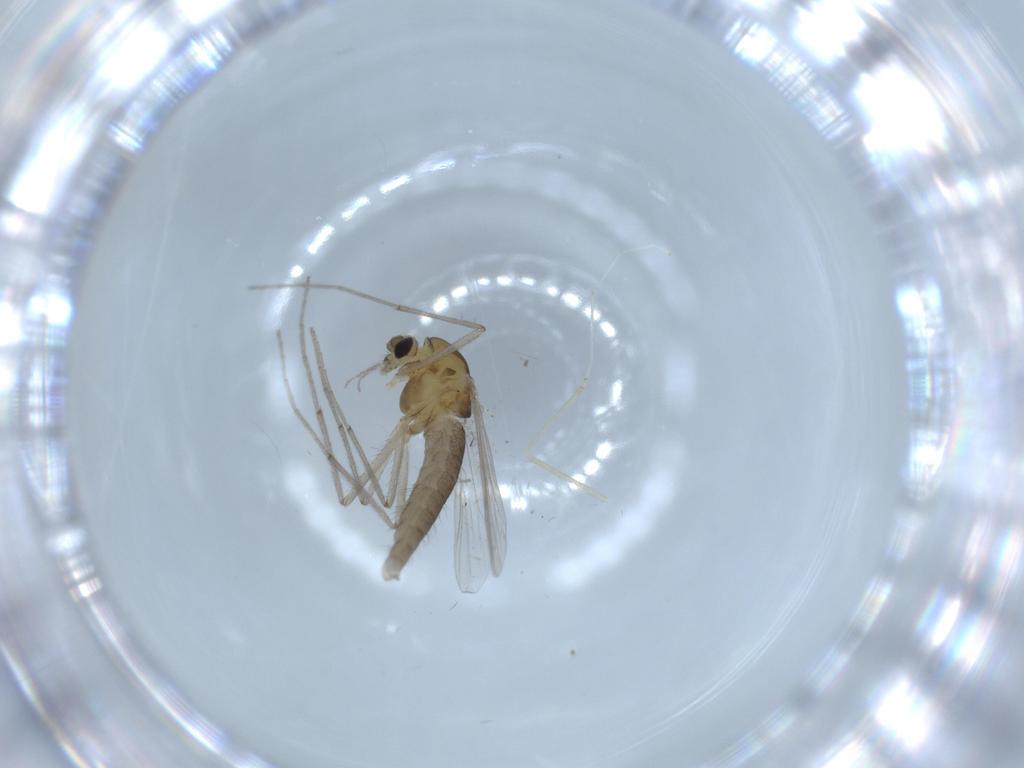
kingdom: Animalia
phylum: Arthropoda
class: Insecta
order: Diptera
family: Chironomidae
